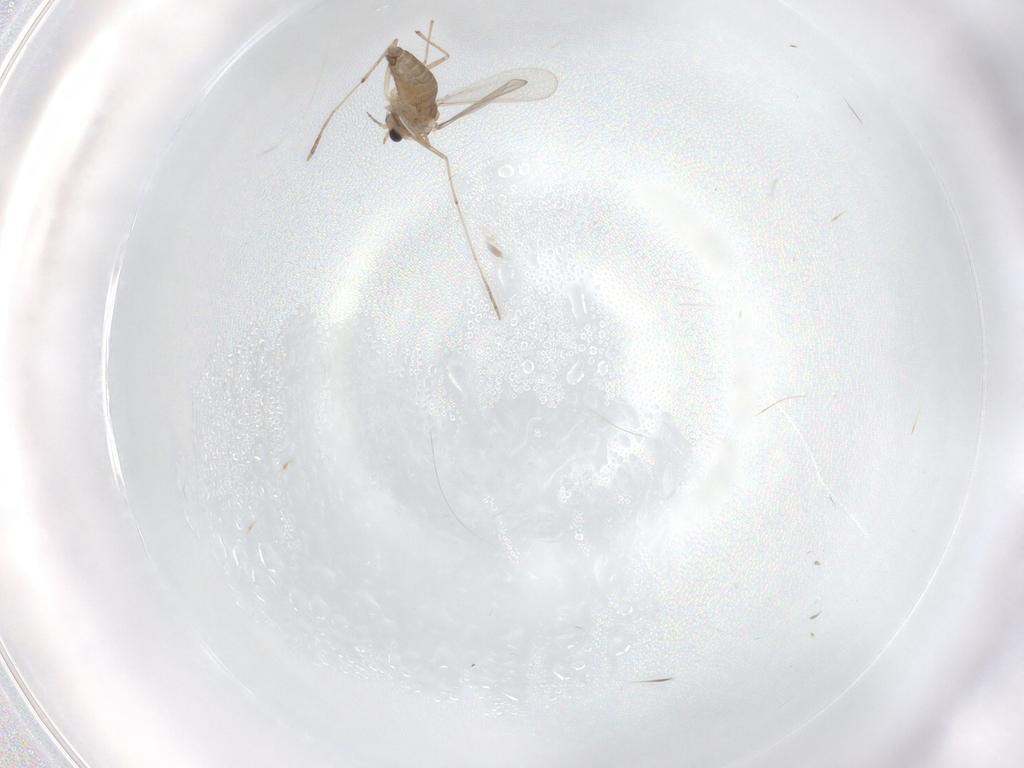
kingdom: Animalia
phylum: Arthropoda
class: Insecta
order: Diptera
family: Chironomidae
